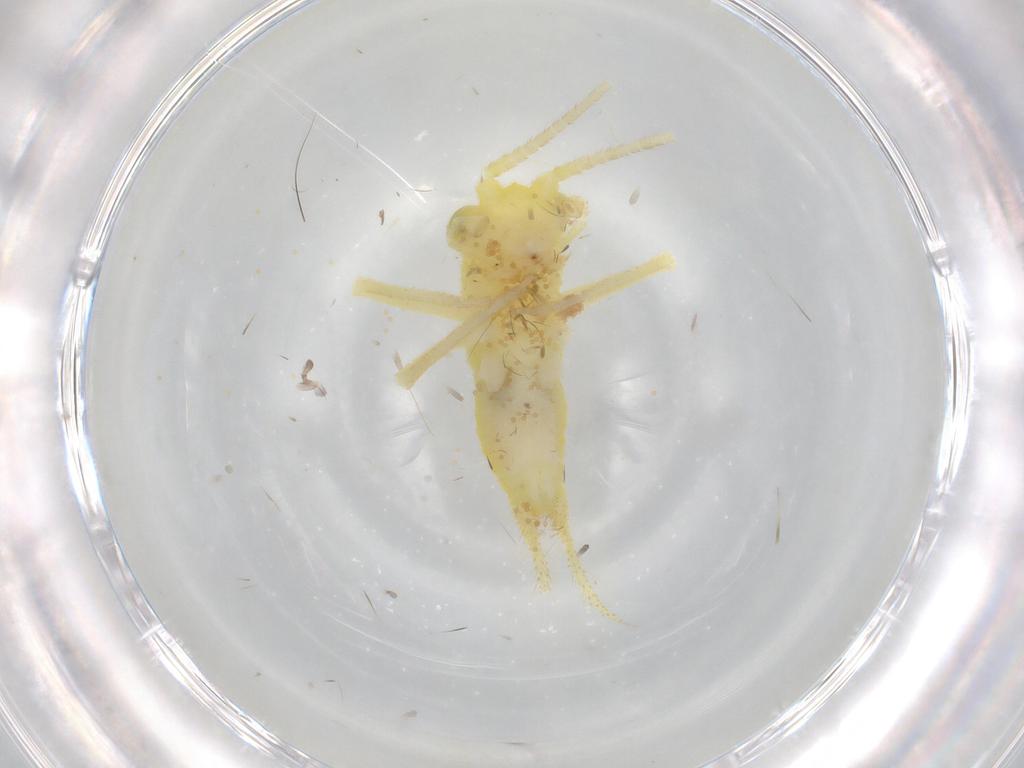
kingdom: Animalia
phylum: Arthropoda
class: Insecta
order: Orthoptera
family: Trigonidiidae
